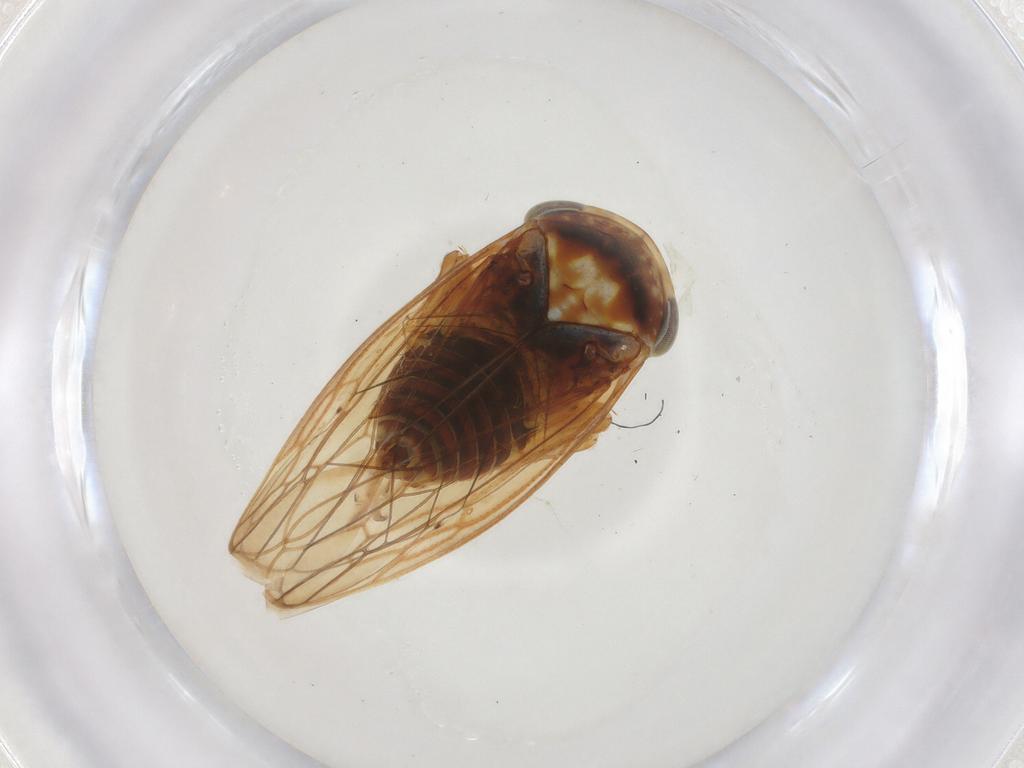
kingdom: Animalia
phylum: Arthropoda
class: Insecta
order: Hemiptera
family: Cicadellidae
